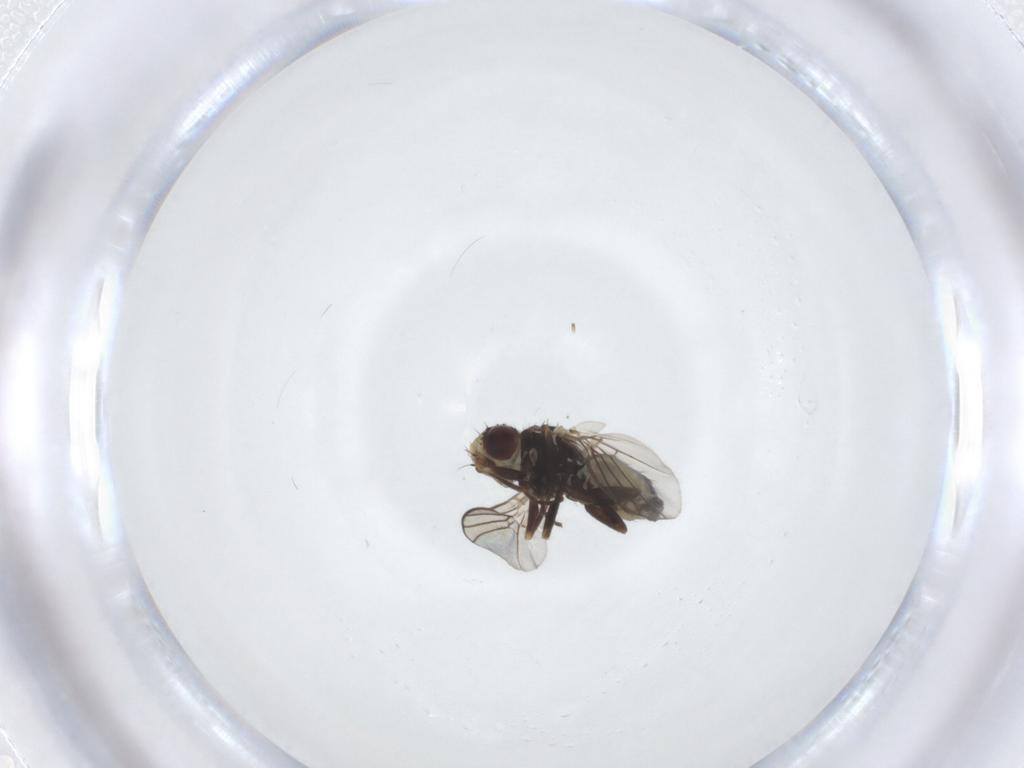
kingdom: Animalia
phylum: Arthropoda
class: Insecta
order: Diptera
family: Agromyzidae
